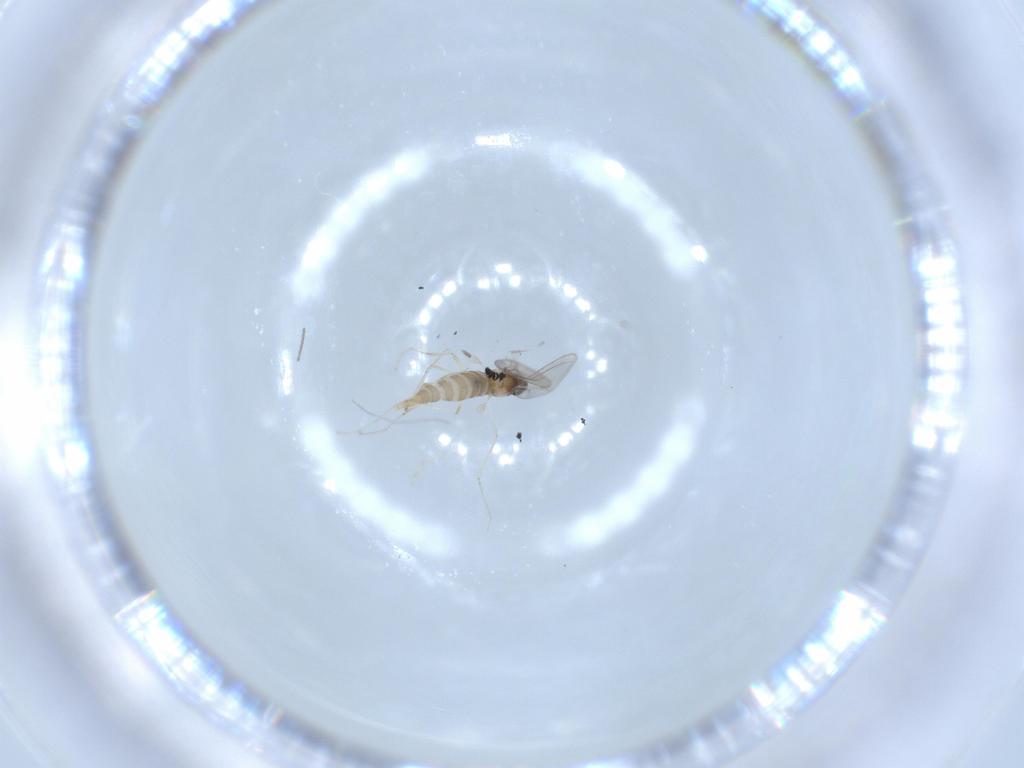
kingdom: Animalia
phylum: Arthropoda
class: Insecta
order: Diptera
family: Cecidomyiidae
